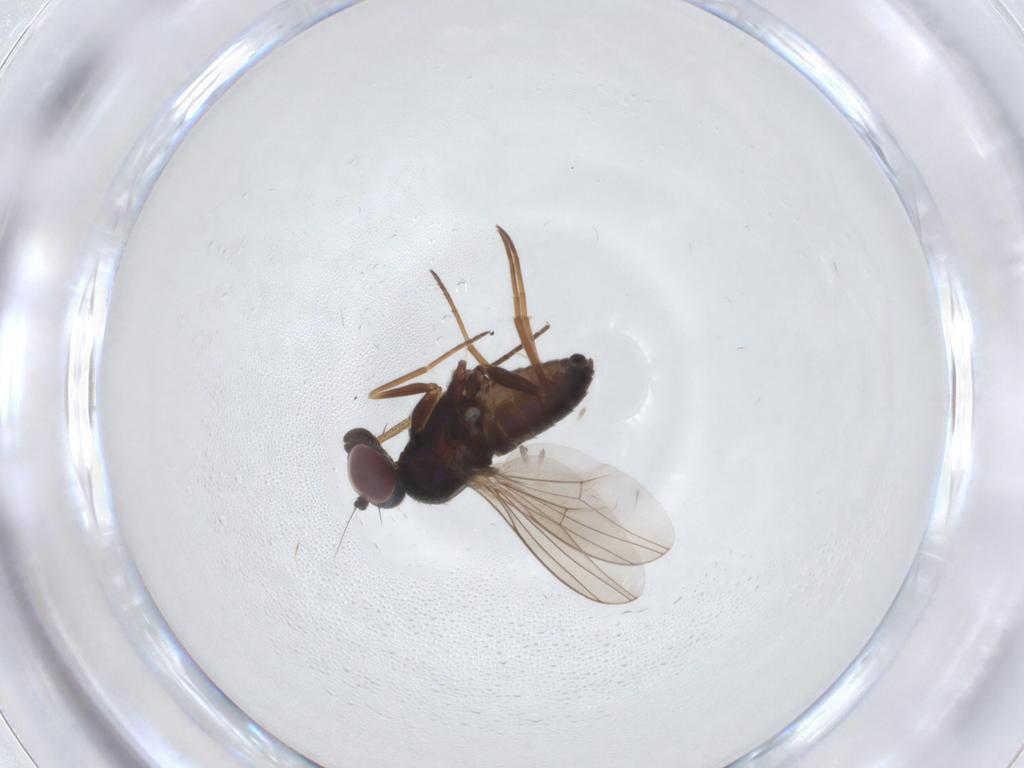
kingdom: Animalia
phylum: Arthropoda
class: Insecta
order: Diptera
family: Dolichopodidae
